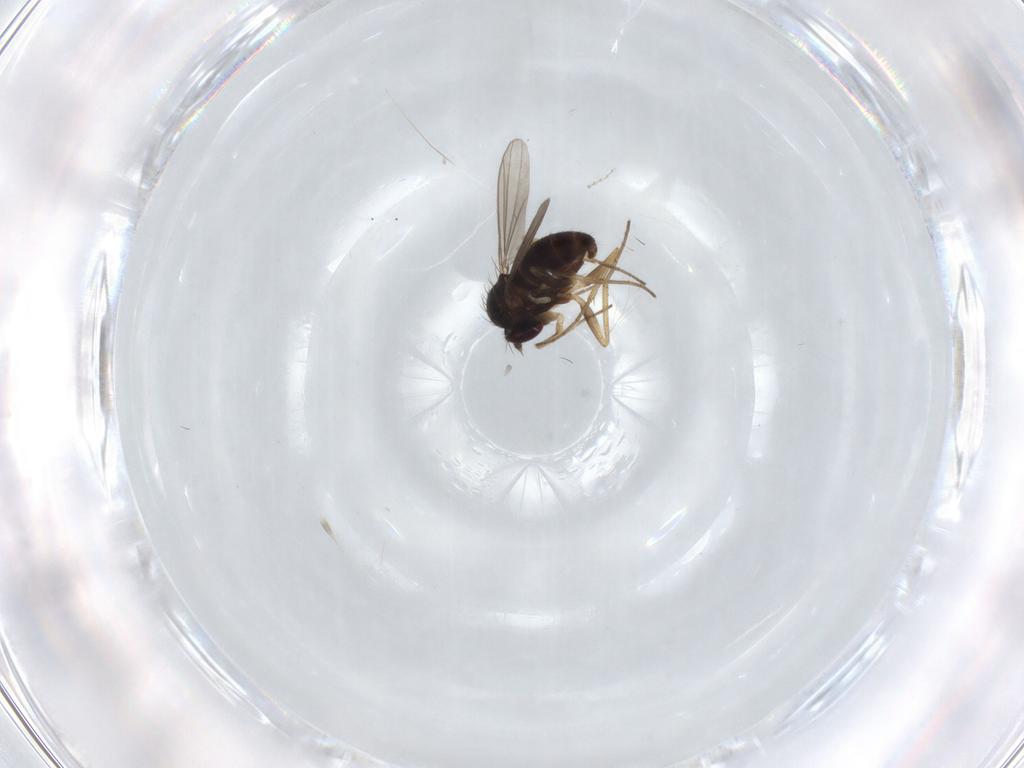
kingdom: Animalia
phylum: Arthropoda
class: Insecta
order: Diptera
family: Dolichopodidae
